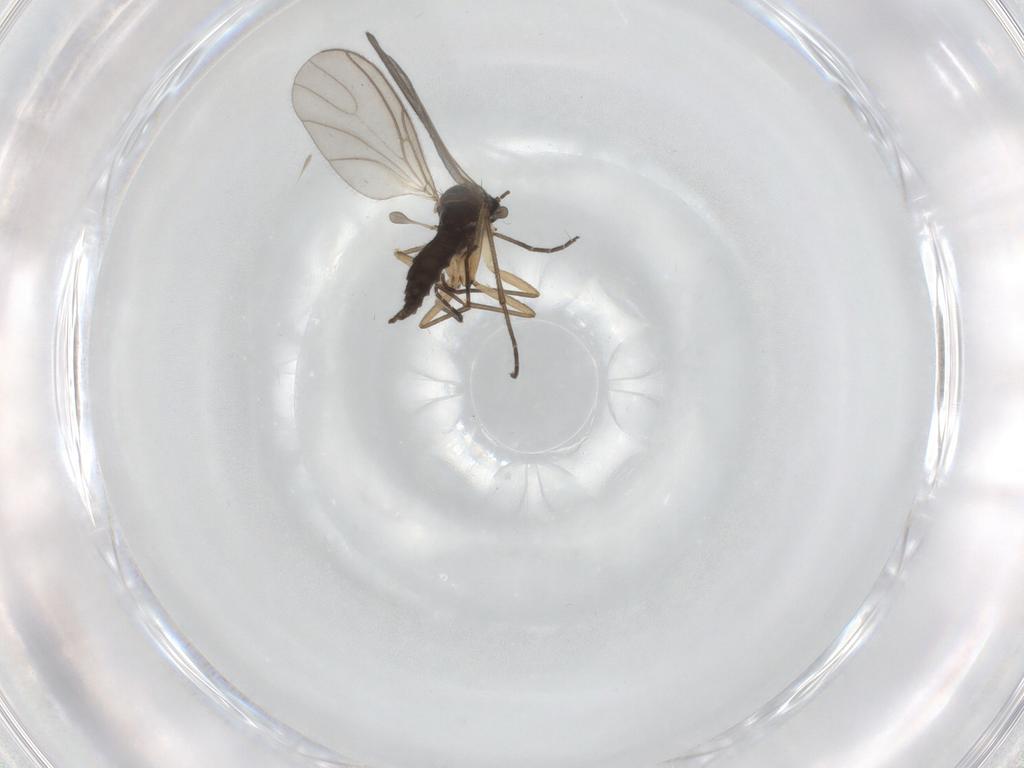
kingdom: Animalia
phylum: Arthropoda
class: Insecta
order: Diptera
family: Sciaridae
